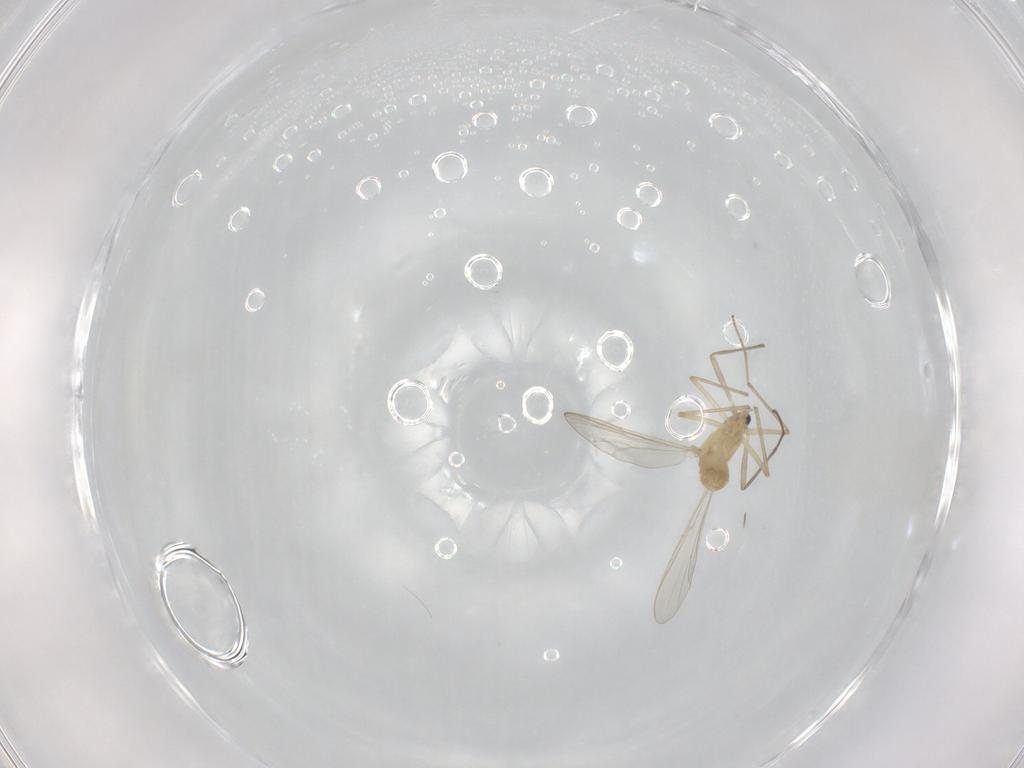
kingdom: Animalia
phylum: Arthropoda
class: Insecta
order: Diptera
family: Chironomidae
